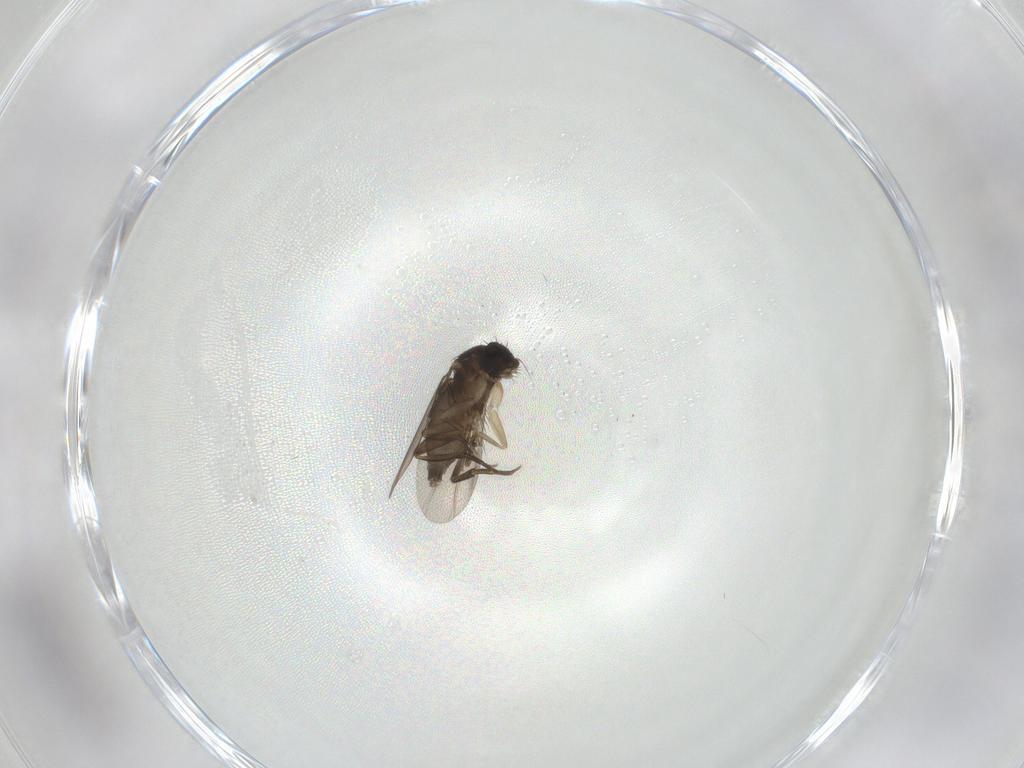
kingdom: Animalia
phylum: Arthropoda
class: Insecta
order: Diptera
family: Phoridae
